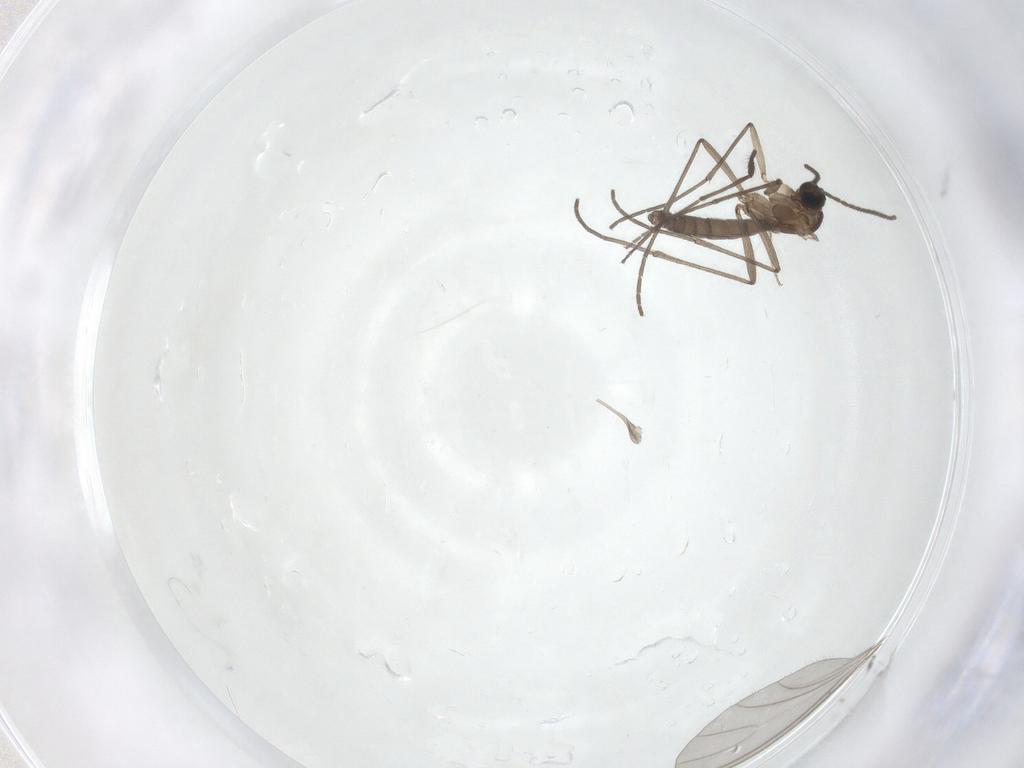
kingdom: Animalia
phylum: Arthropoda
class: Insecta
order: Diptera
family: Sciaridae
